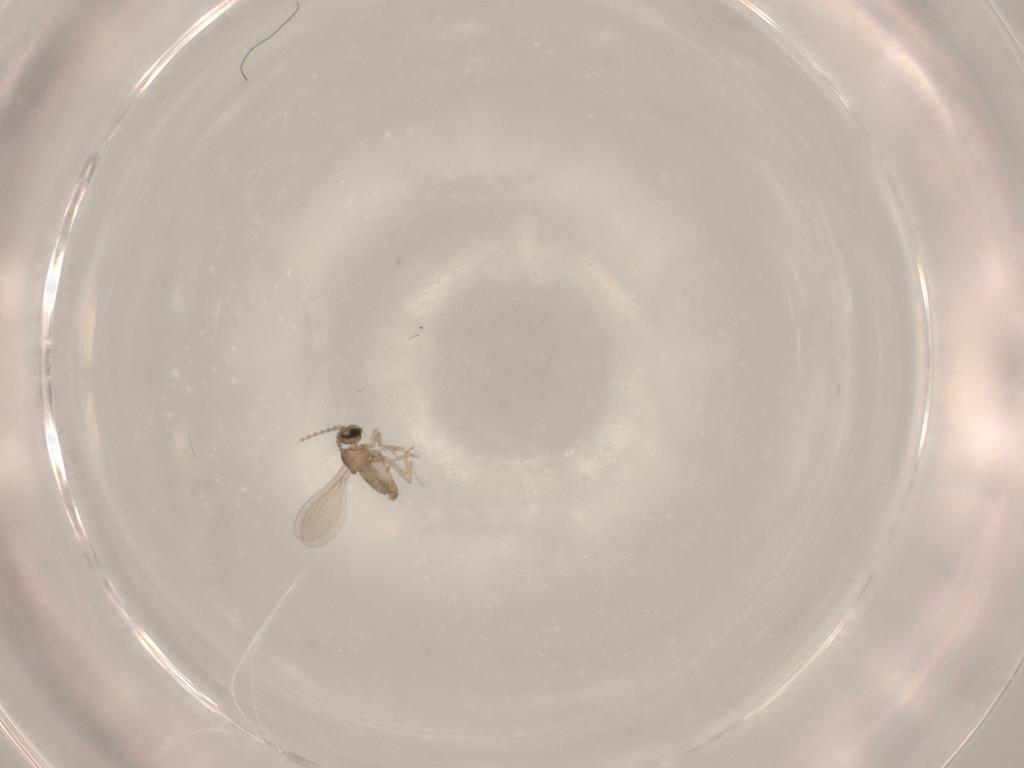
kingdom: Animalia
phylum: Arthropoda
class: Insecta
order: Diptera
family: Cecidomyiidae
